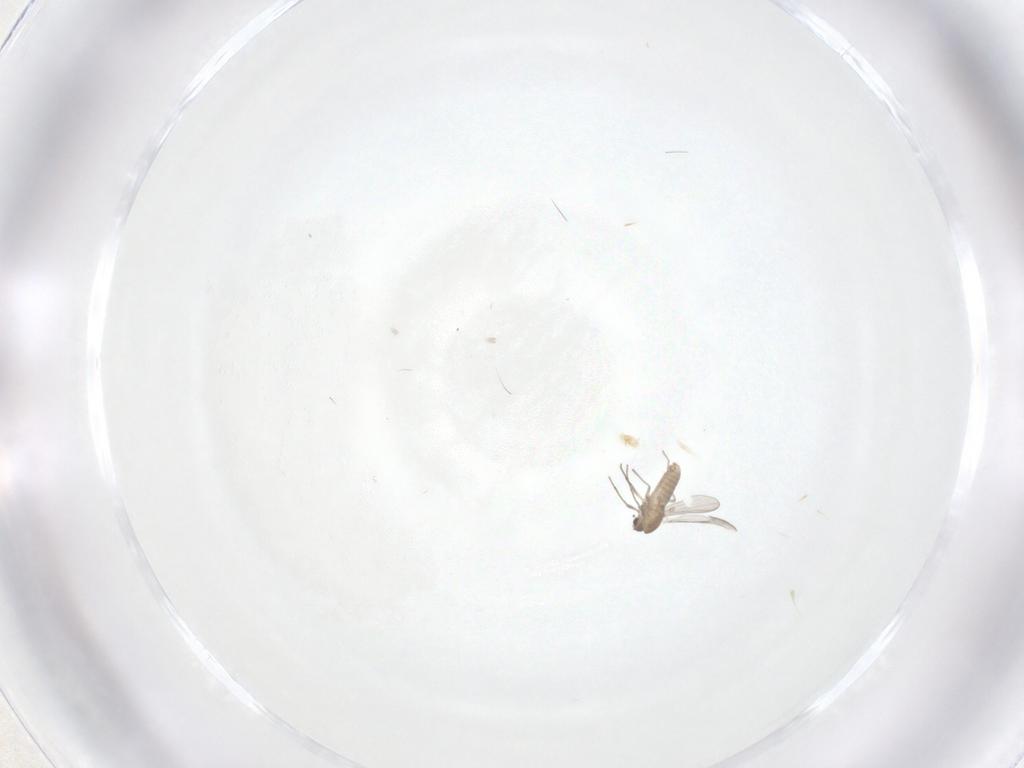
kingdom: Animalia
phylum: Arthropoda
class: Insecta
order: Diptera
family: Chironomidae
